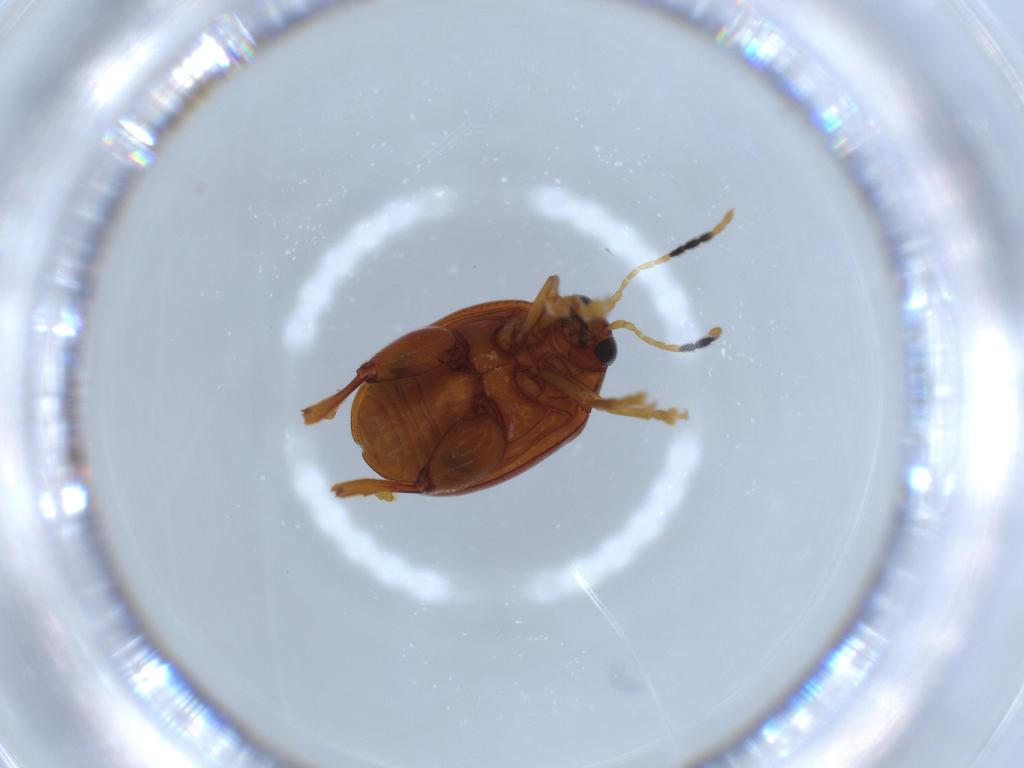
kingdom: Animalia
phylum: Arthropoda
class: Insecta
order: Coleoptera
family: Chrysomelidae
